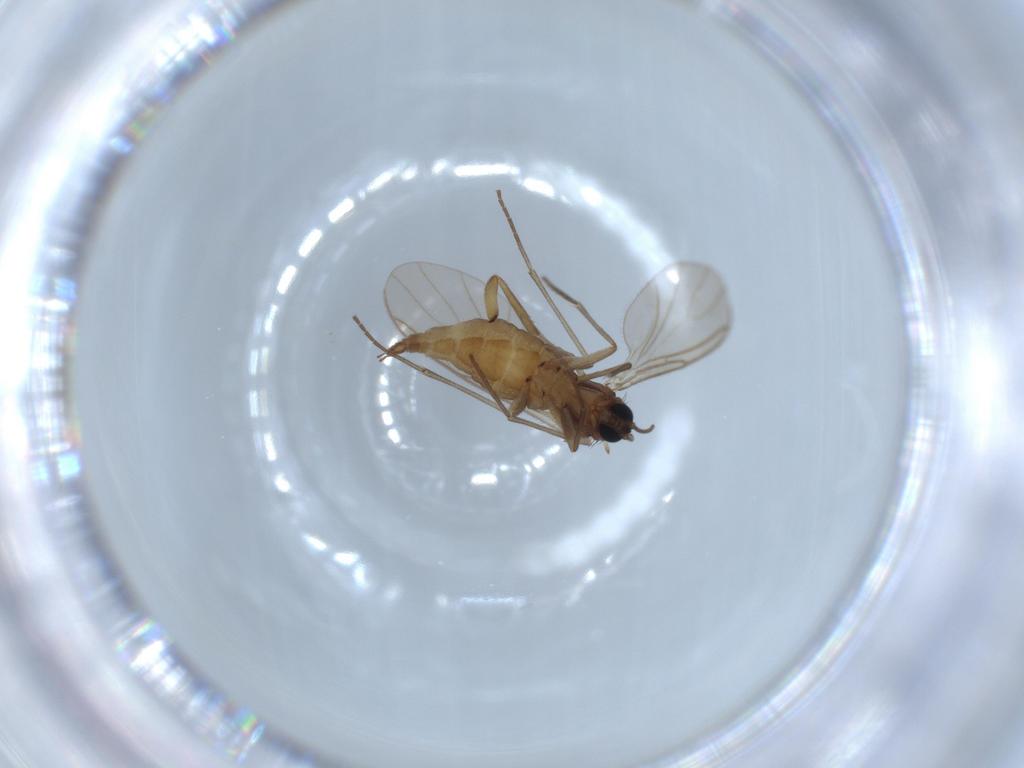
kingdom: Animalia
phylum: Arthropoda
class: Insecta
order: Diptera
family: Sciaridae
